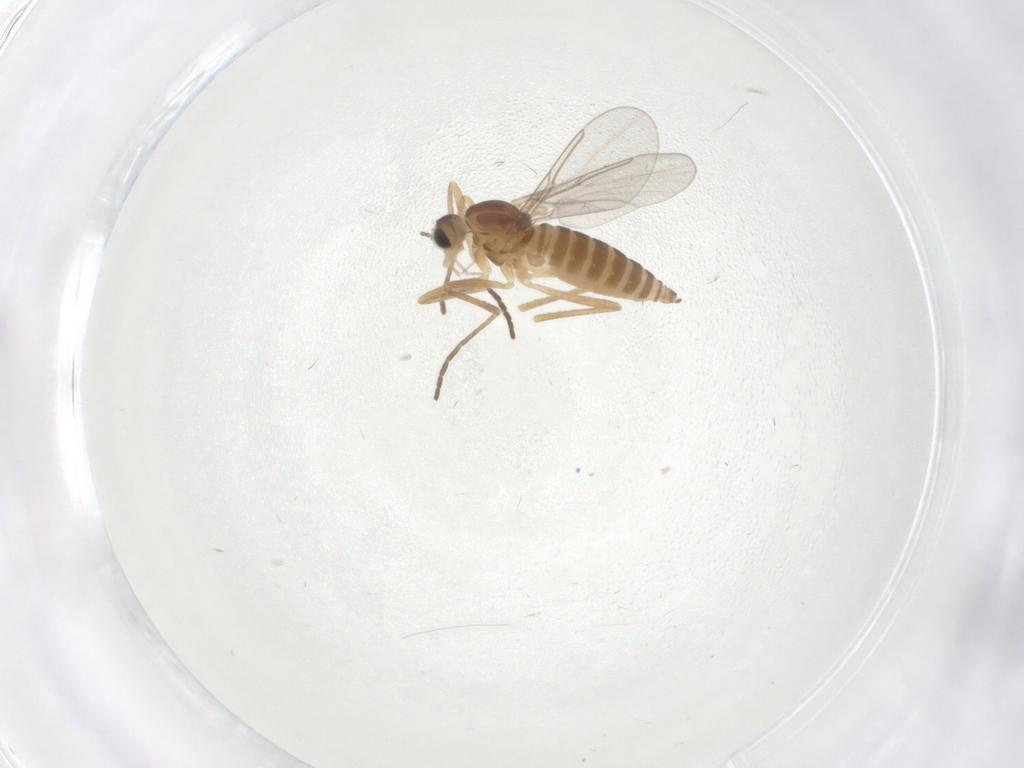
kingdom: Animalia
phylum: Arthropoda
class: Insecta
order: Diptera
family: Cecidomyiidae
